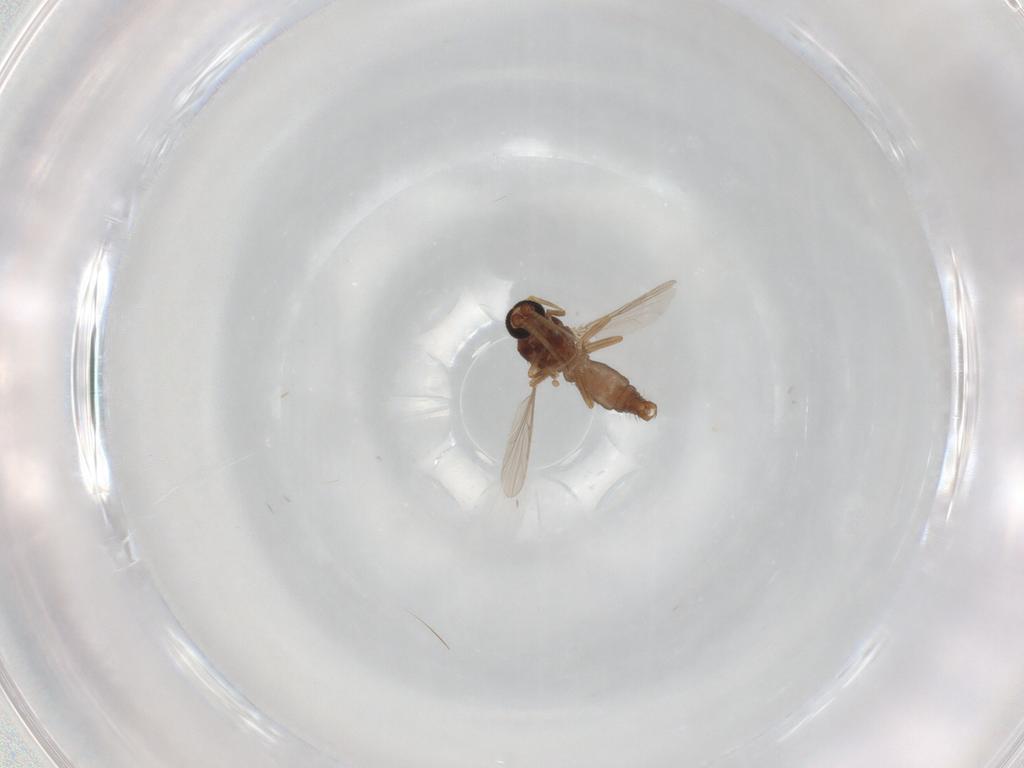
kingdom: Animalia
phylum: Arthropoda
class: Insecta
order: Diptera
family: Ceratopogonidae
